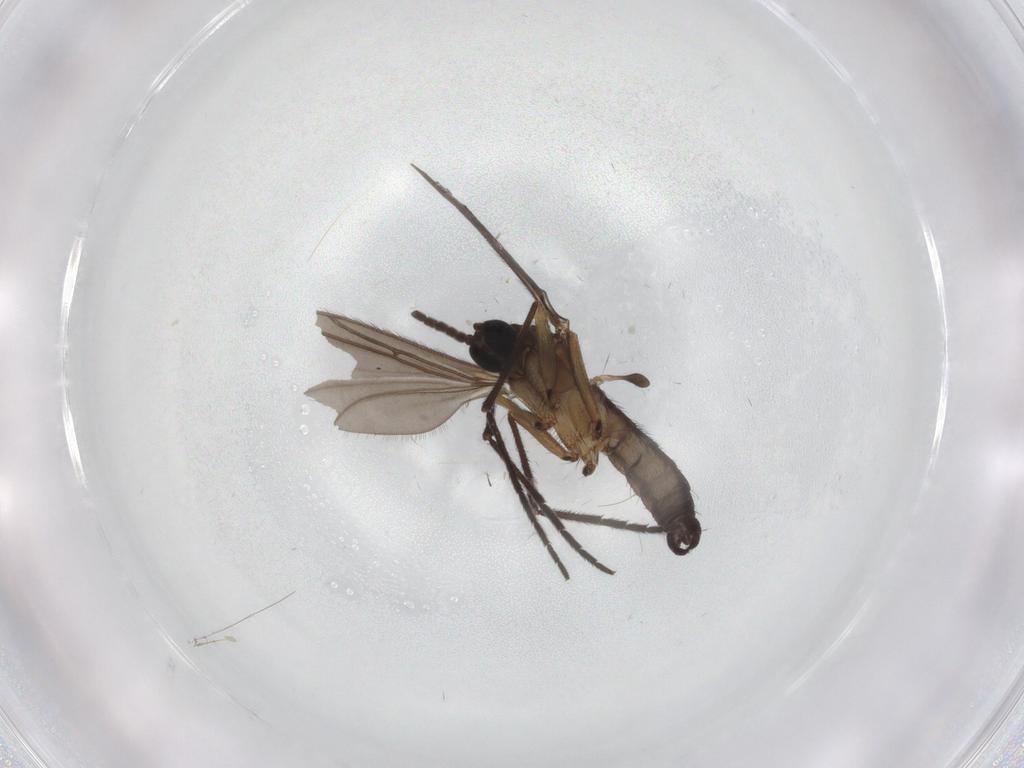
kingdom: Animalia
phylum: Arthropoda
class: Insecta
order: Diptera
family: Sciaridae
